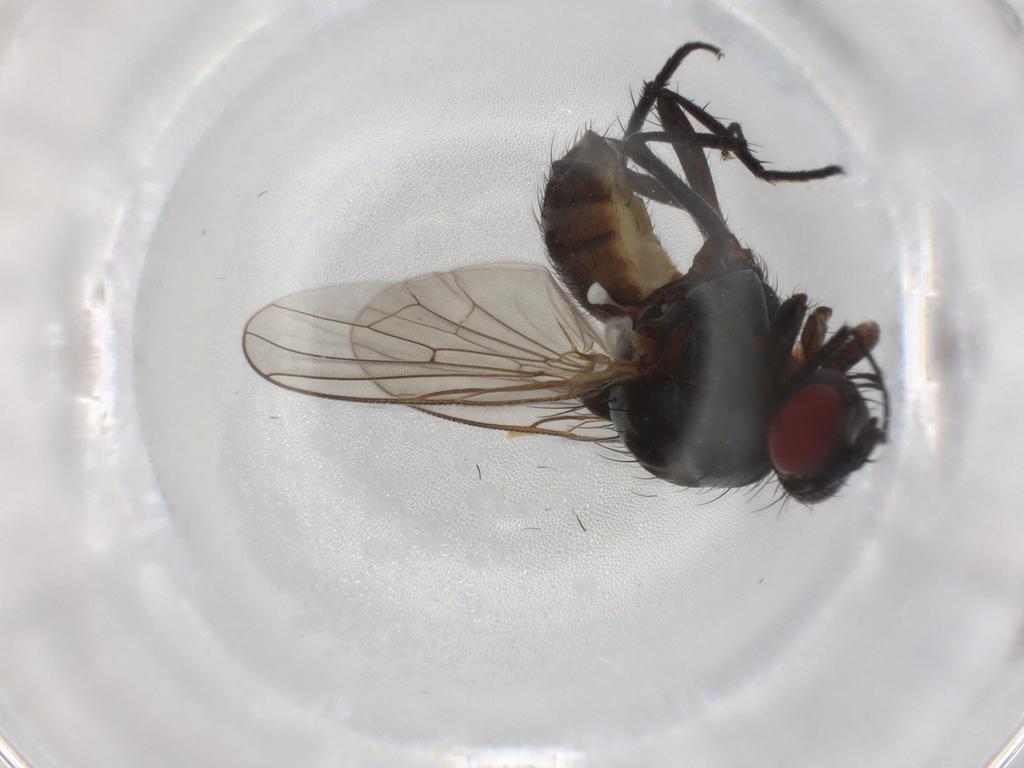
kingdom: Animalia
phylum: Arthropoda
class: Insecta
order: Diptera
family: Anthomyiidae
